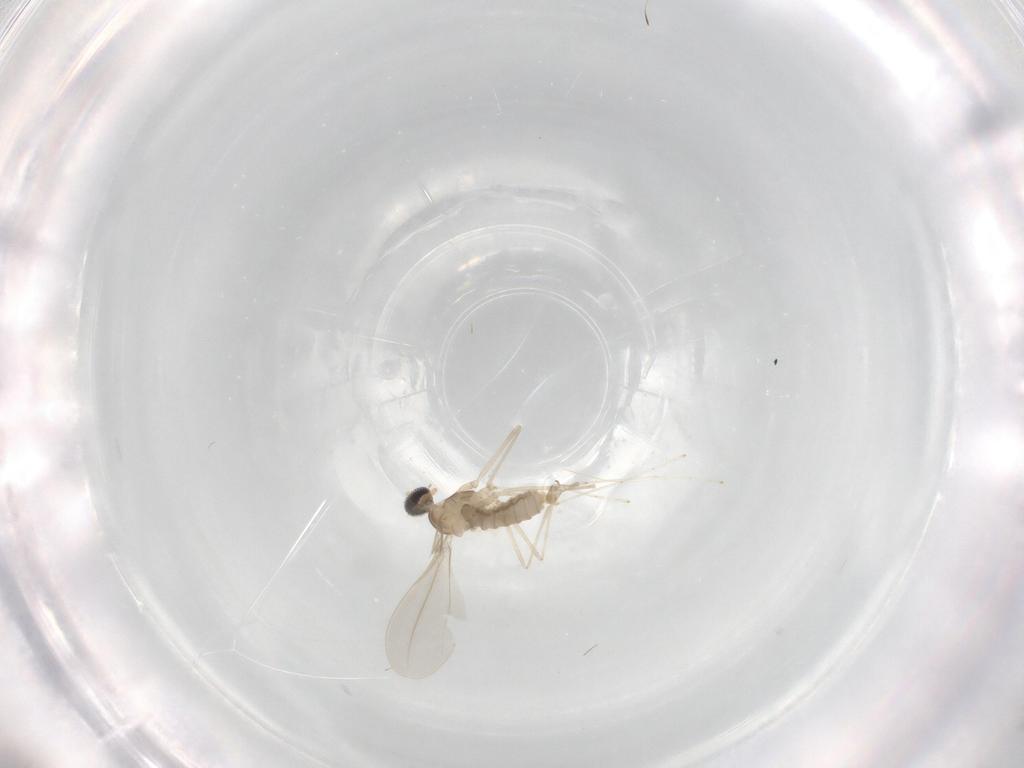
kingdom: Animalia
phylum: Arthropoda
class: Insecta
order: Diptera
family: Cecidomyiidae
